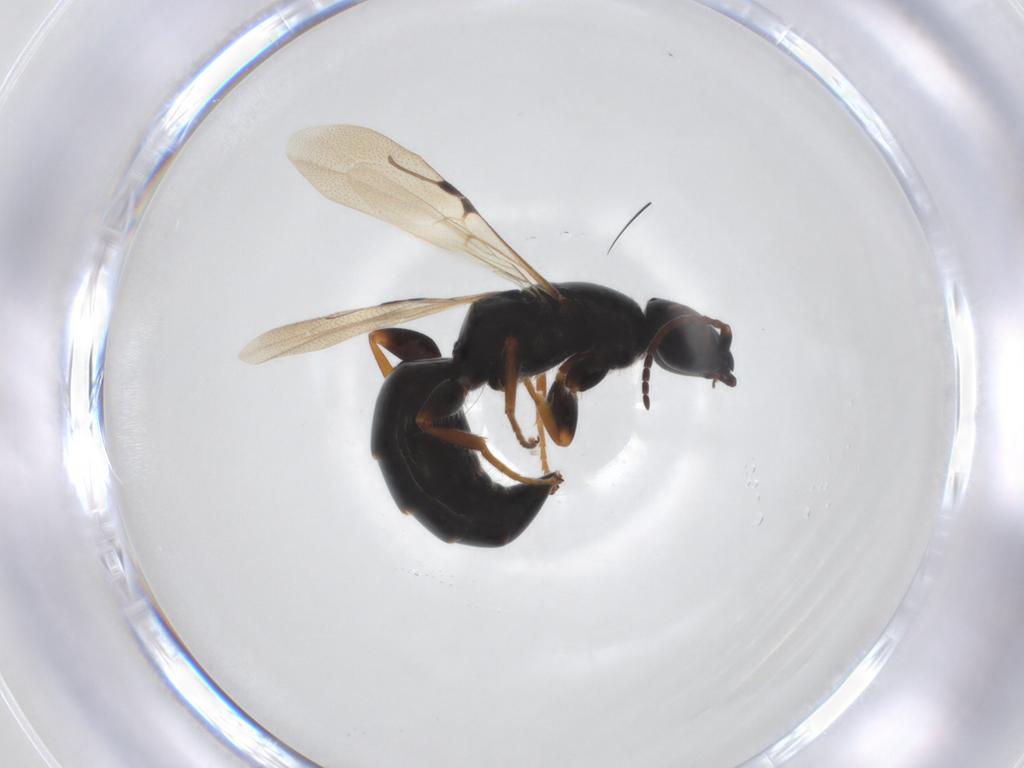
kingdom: Animalia
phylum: Arthropoda
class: Insecta
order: Hymenoptera
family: Bethylidae
